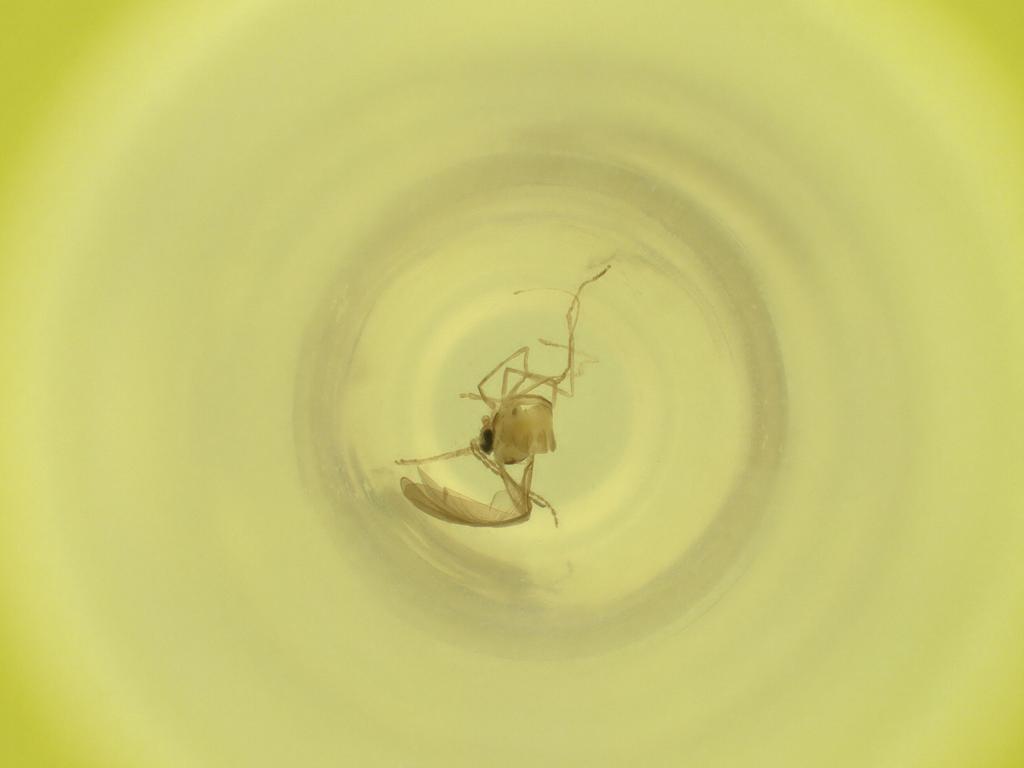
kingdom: Animalia
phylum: Arthropoda
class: Insecta
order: Diptera
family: Cecidomyiidae
